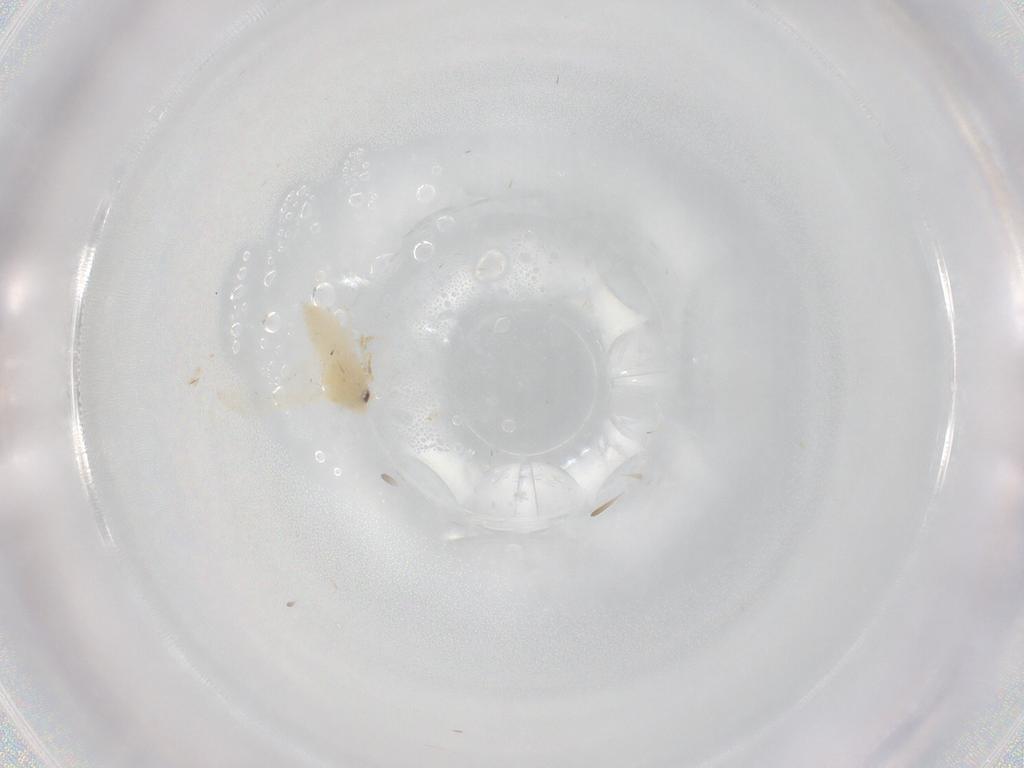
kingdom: Animalia
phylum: Arthropoda
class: Insecta
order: Hemiptera
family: Aleyrodidae
